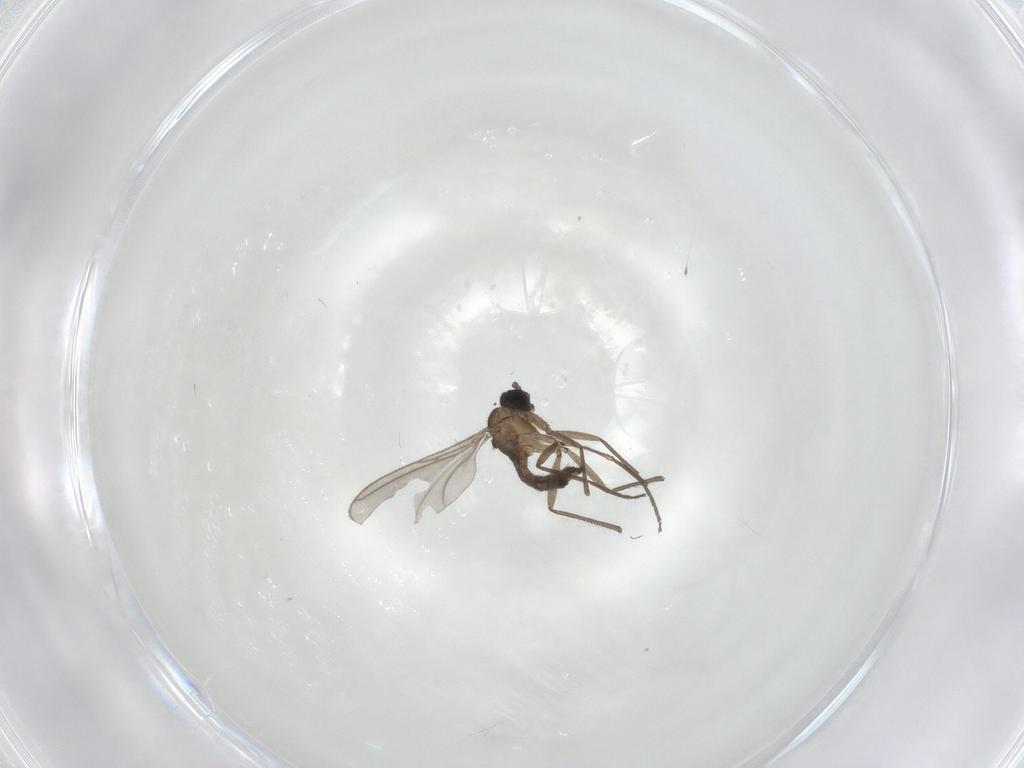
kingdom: Animalia
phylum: Arthropoda
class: Insecta
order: Diptera
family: Sciaridae
